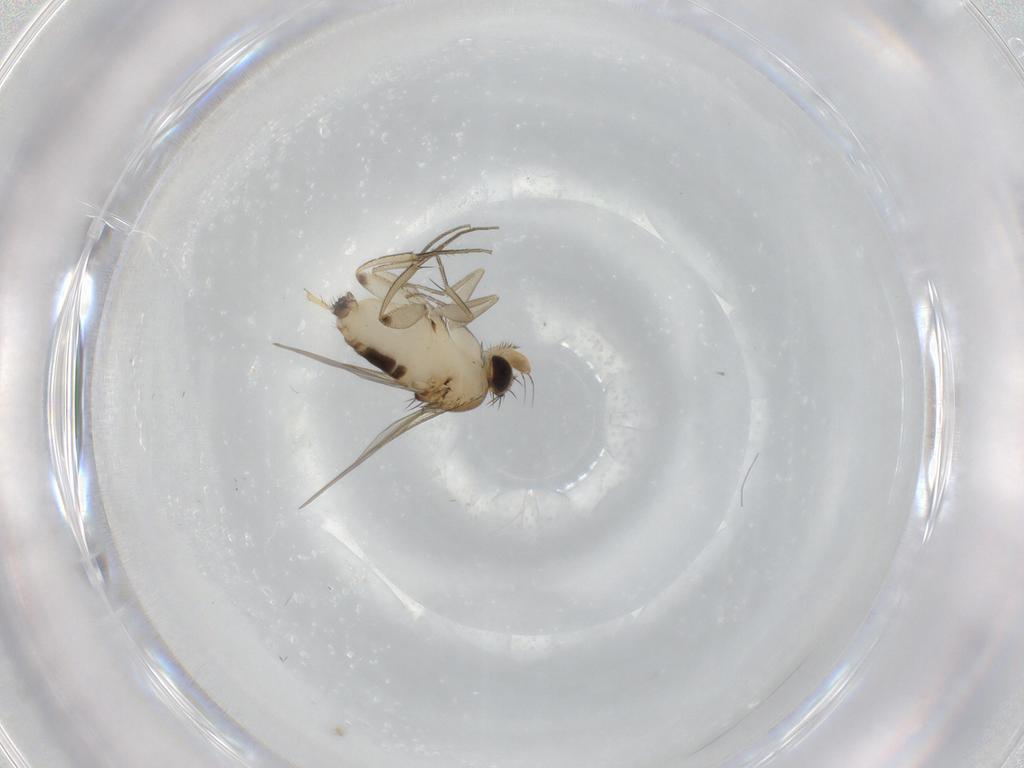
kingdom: Animalia
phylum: Arthropoda
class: Insecta
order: Diptera
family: Phoridae
